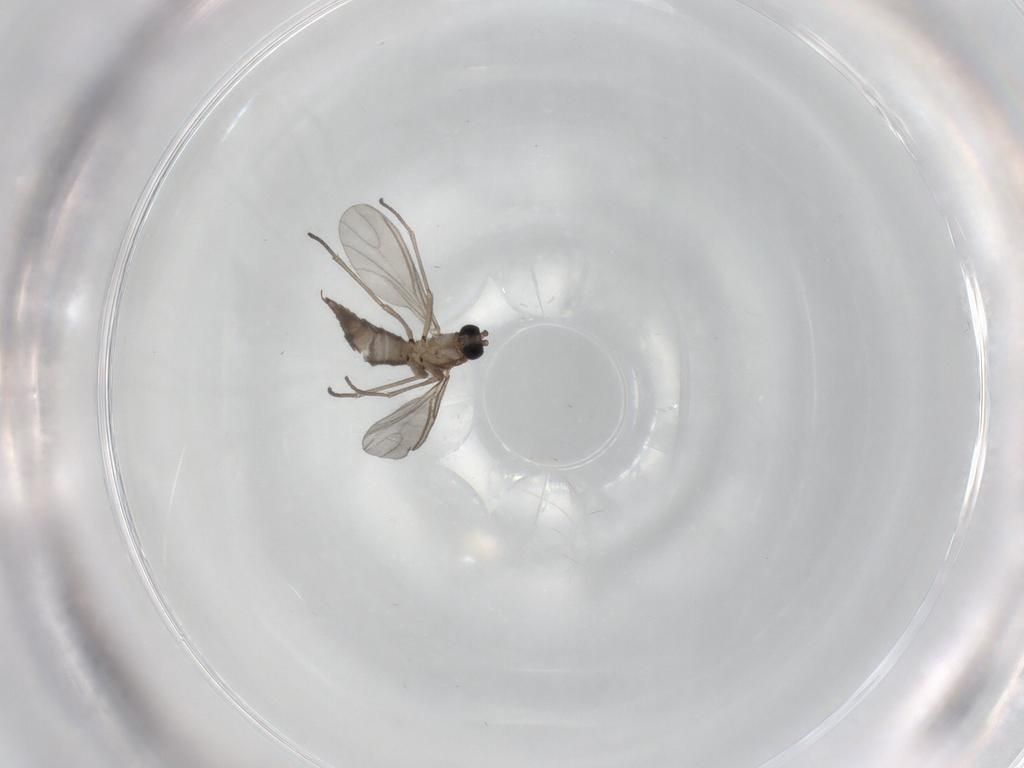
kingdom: Animalia
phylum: Arthropoda
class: Insecta
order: Diptera
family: Sciaridae
